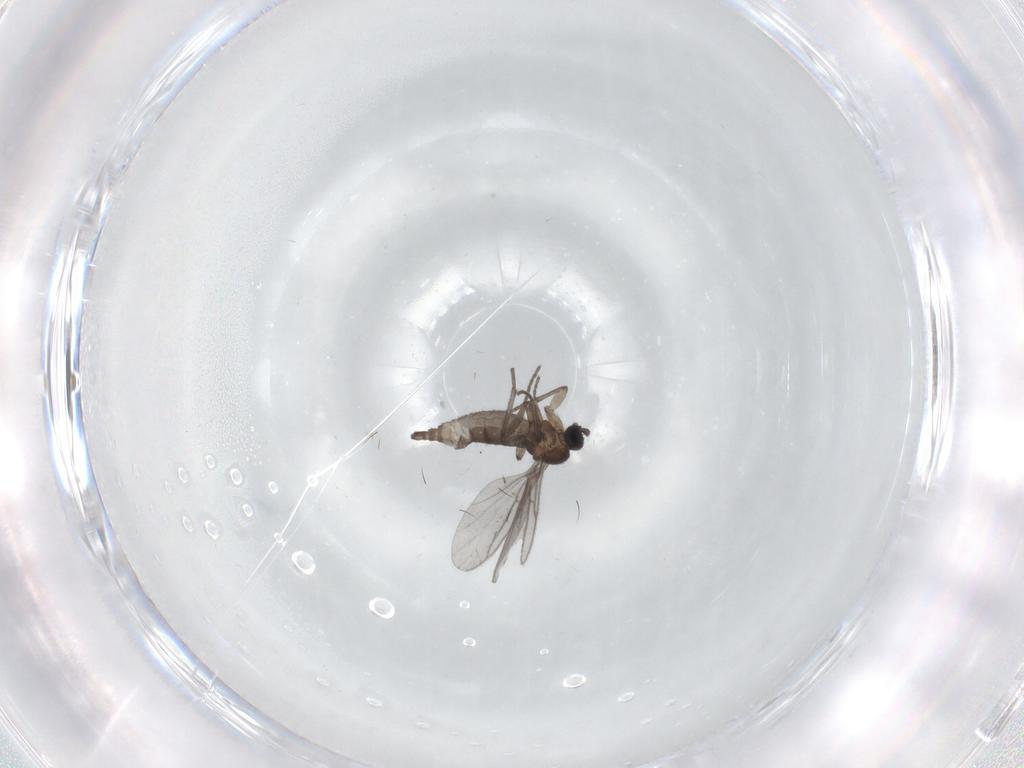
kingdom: Animalia
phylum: Arthropoda
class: Insecta
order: Diptera
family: Sciaridae
